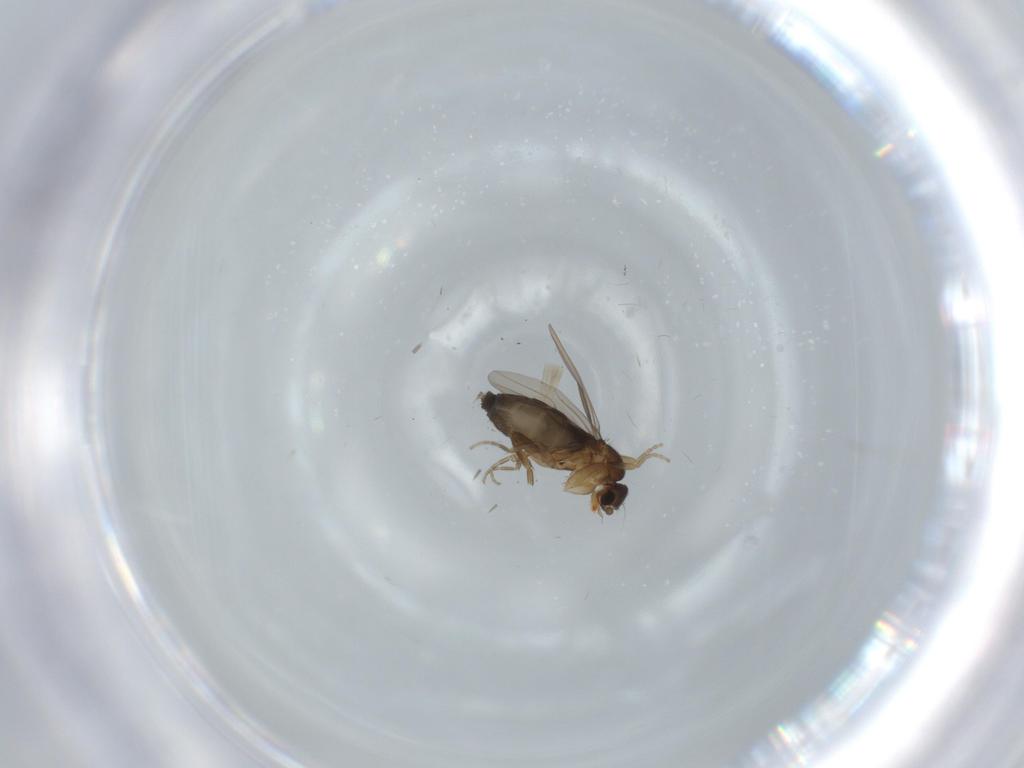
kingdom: Animalia
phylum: Arthropoda
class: Insecta
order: Diptera
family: Phoridae
